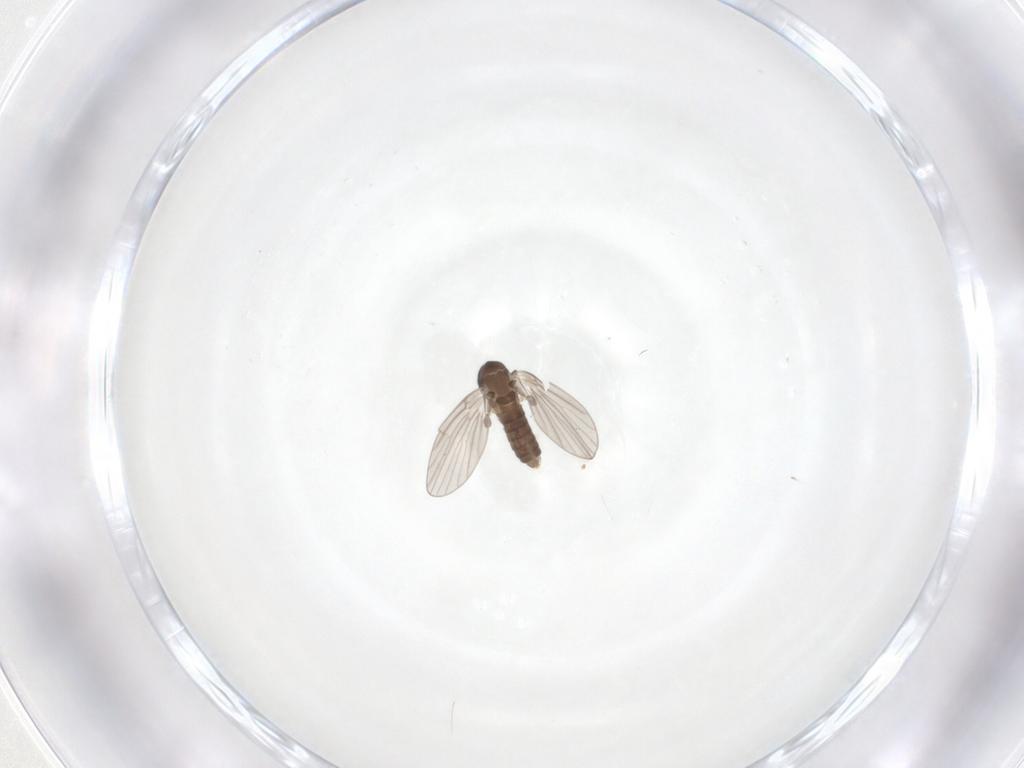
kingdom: Animalia
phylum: Arthropoda
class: Insecta
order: Diptera
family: Psychodidae
